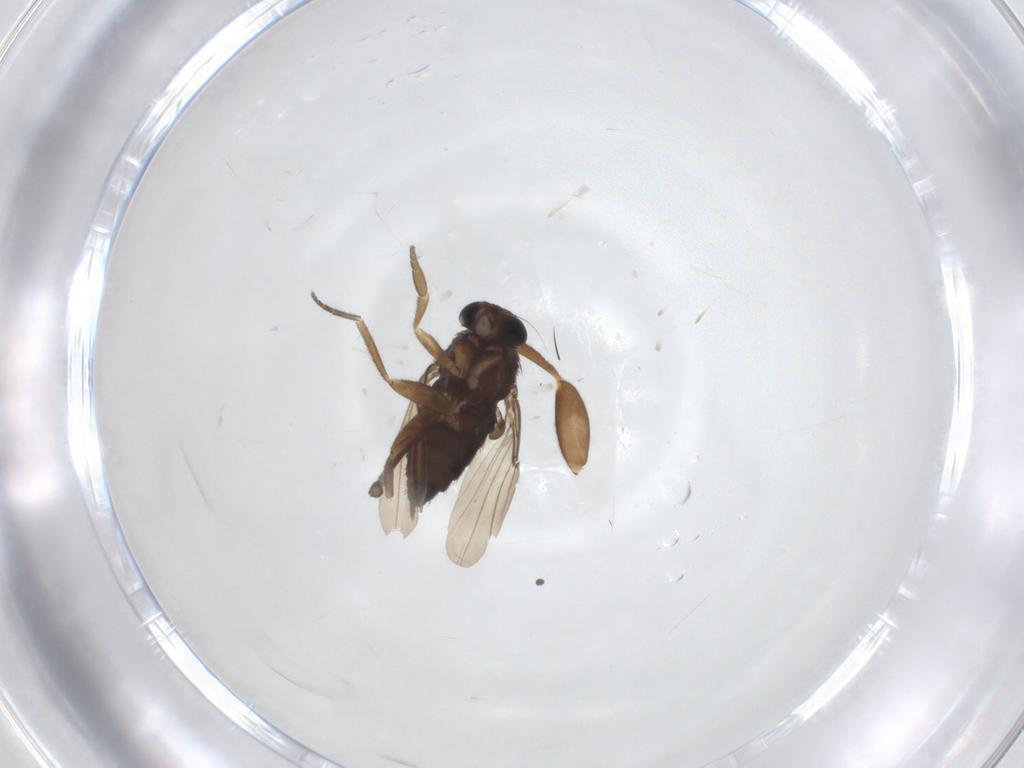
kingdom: Animalia
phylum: Arthropoda
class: Insecta
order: Diptera
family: Phoridae
